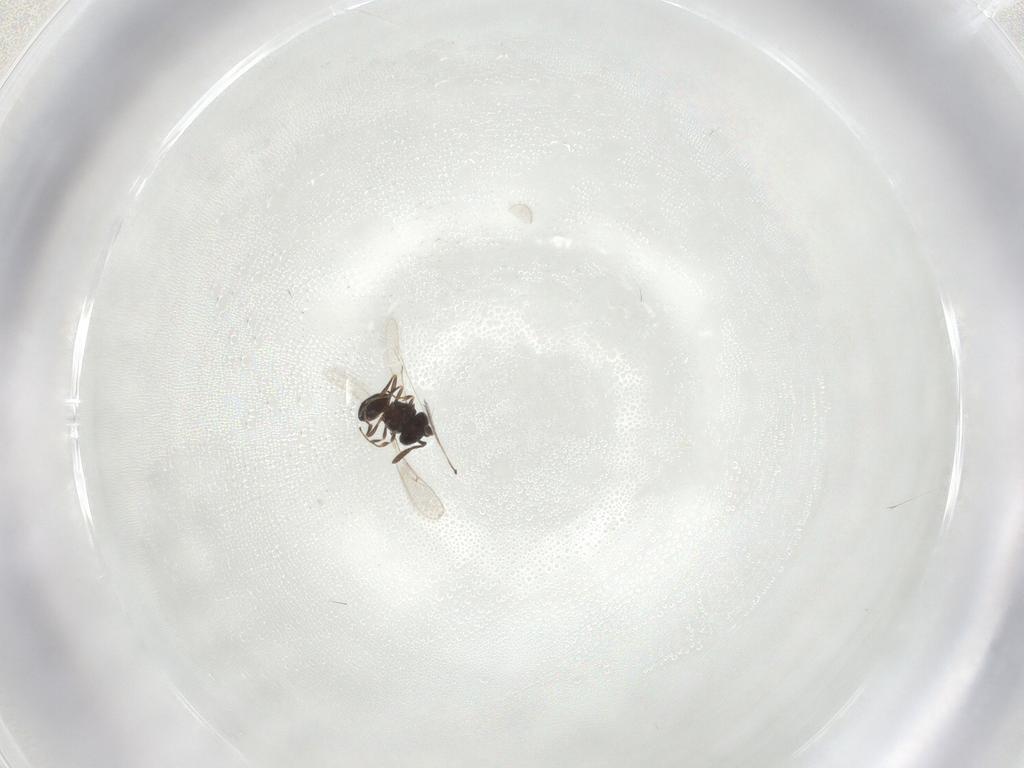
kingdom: Animalia
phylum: Arthropoda
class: Insecta
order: Hymenoptera
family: Scelionidae
